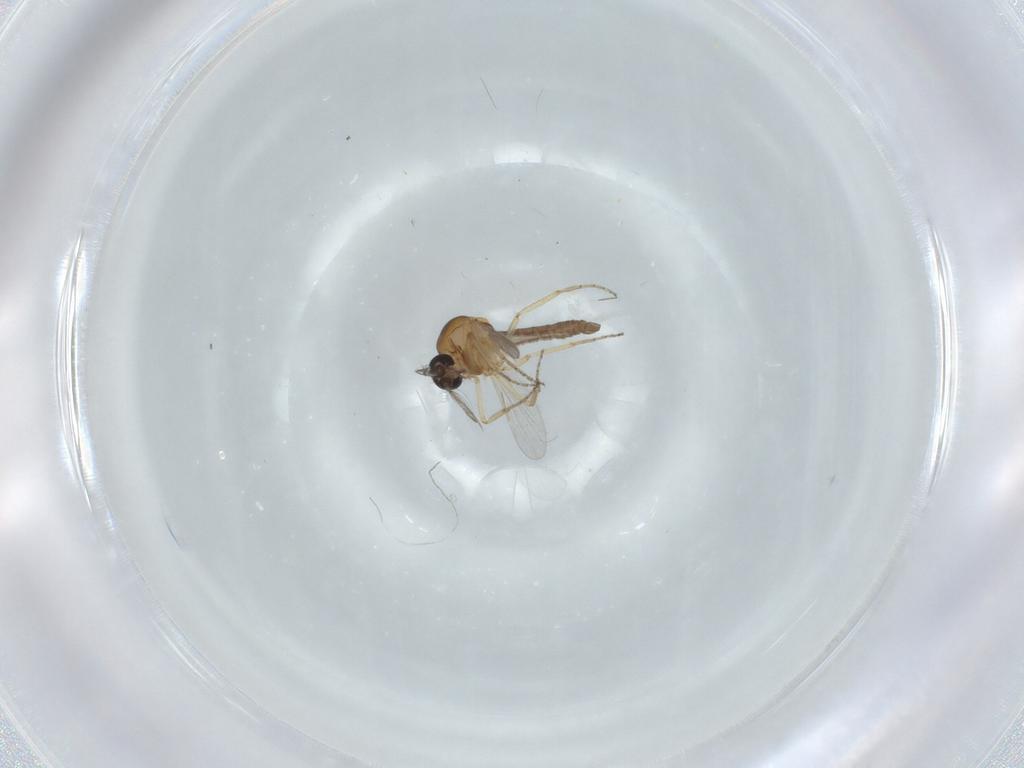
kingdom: Animalia
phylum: Arthropoda
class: Insecta
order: Diptera
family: Ceratopogonidae
